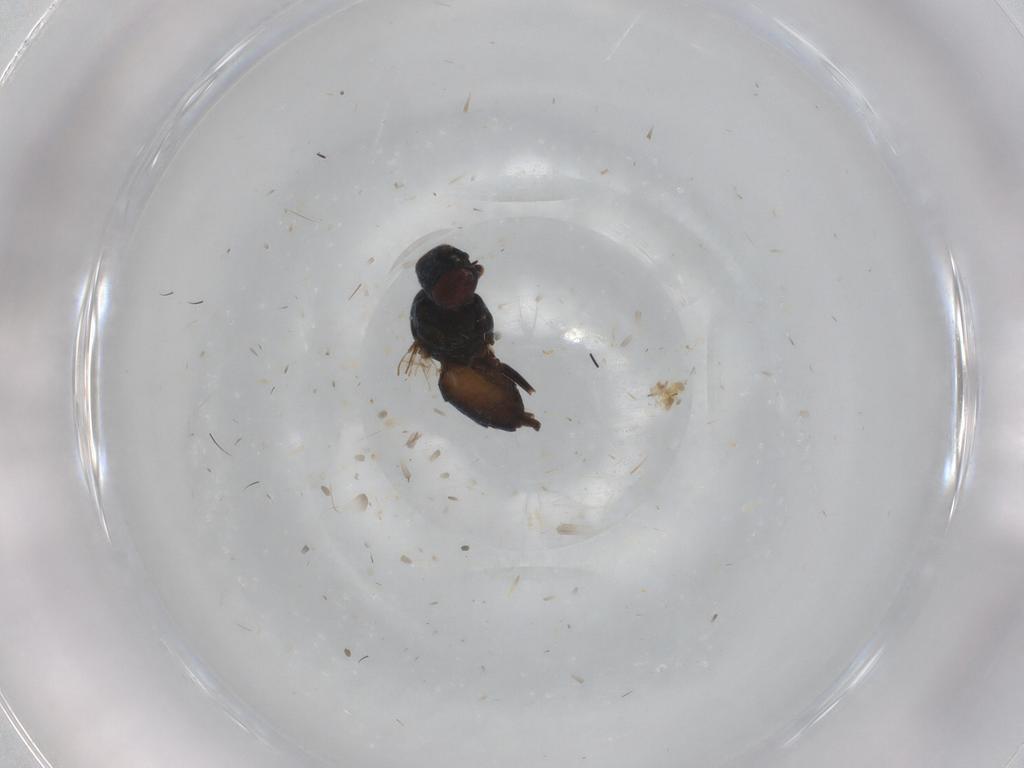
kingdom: Animalia
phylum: Arthropoda
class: Insecta
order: Diptera
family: Chloropidae
